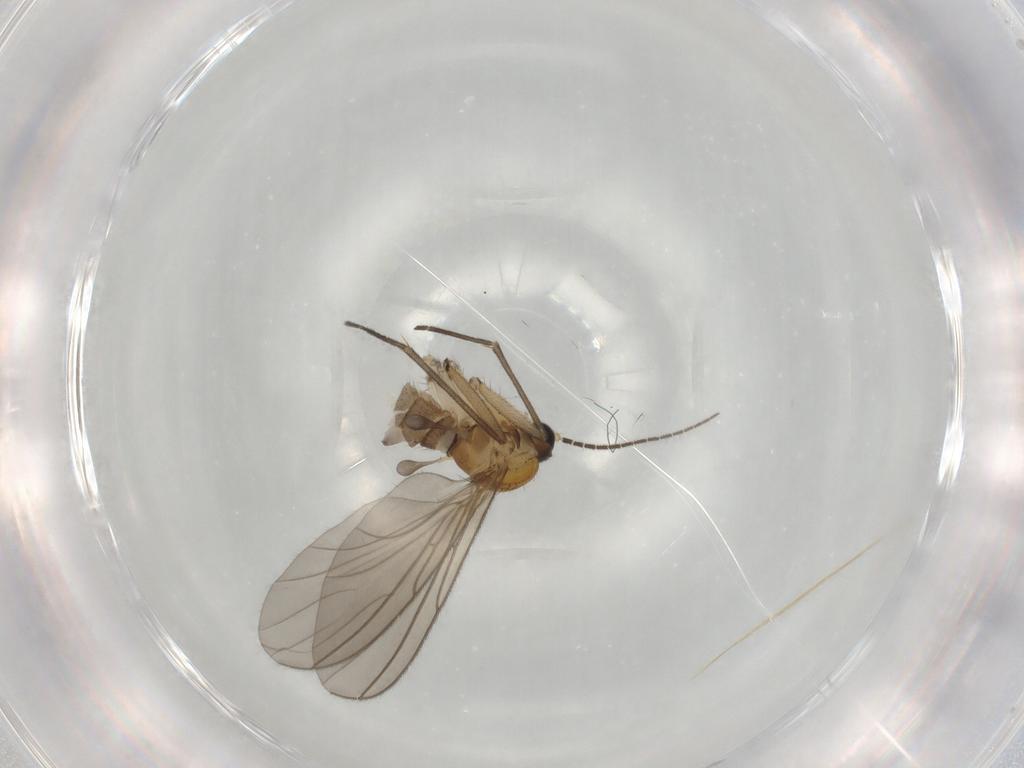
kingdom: Animalia
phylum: Arthropoda
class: Insecta
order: Diptera
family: Sciaridae
